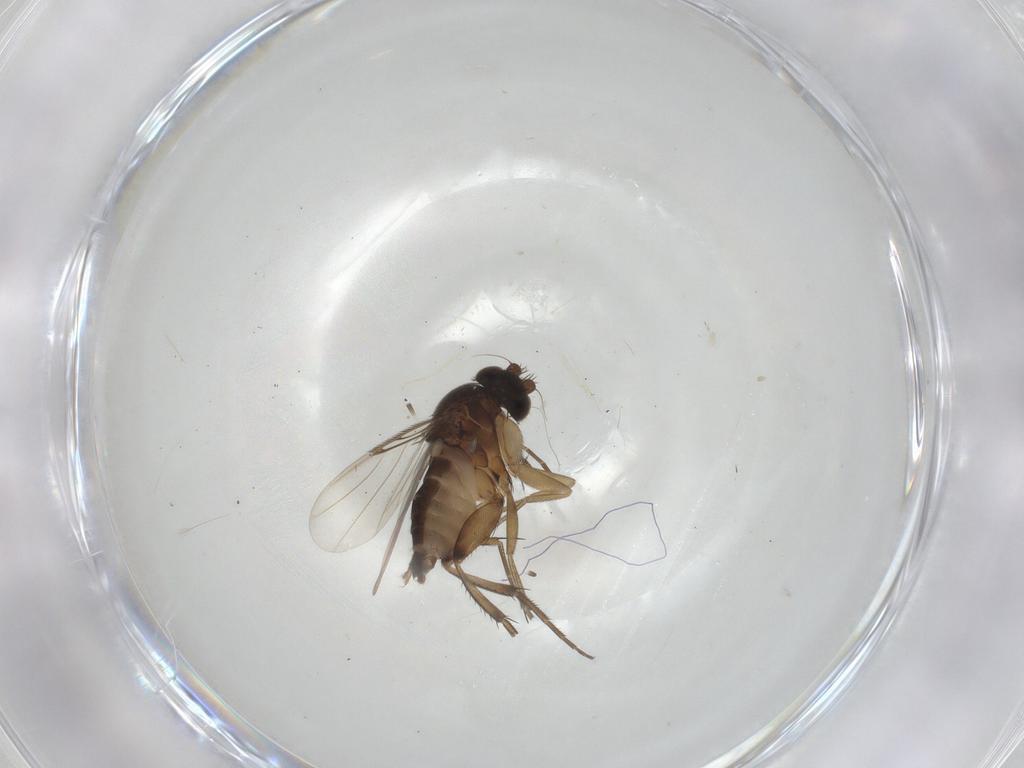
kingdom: Animalia
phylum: Arthropoda
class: Insecta
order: Diptera
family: Phoridae
